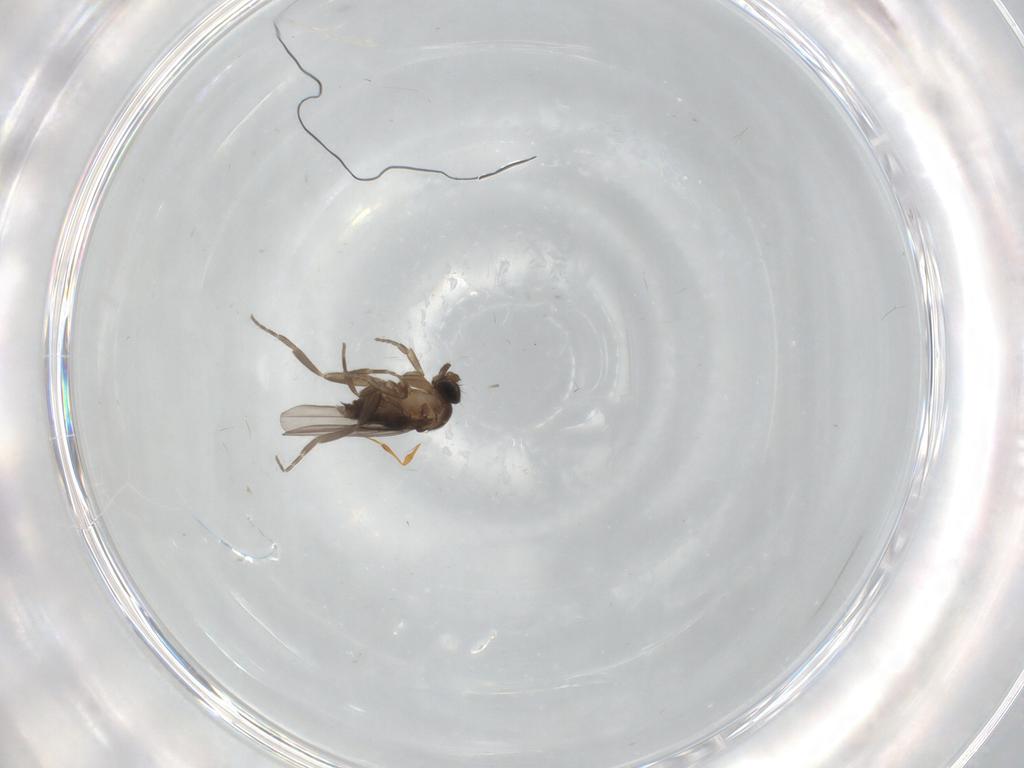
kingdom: Animalia
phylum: Arthropoda
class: Insecta
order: Diptera
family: Cecidomyiidae
